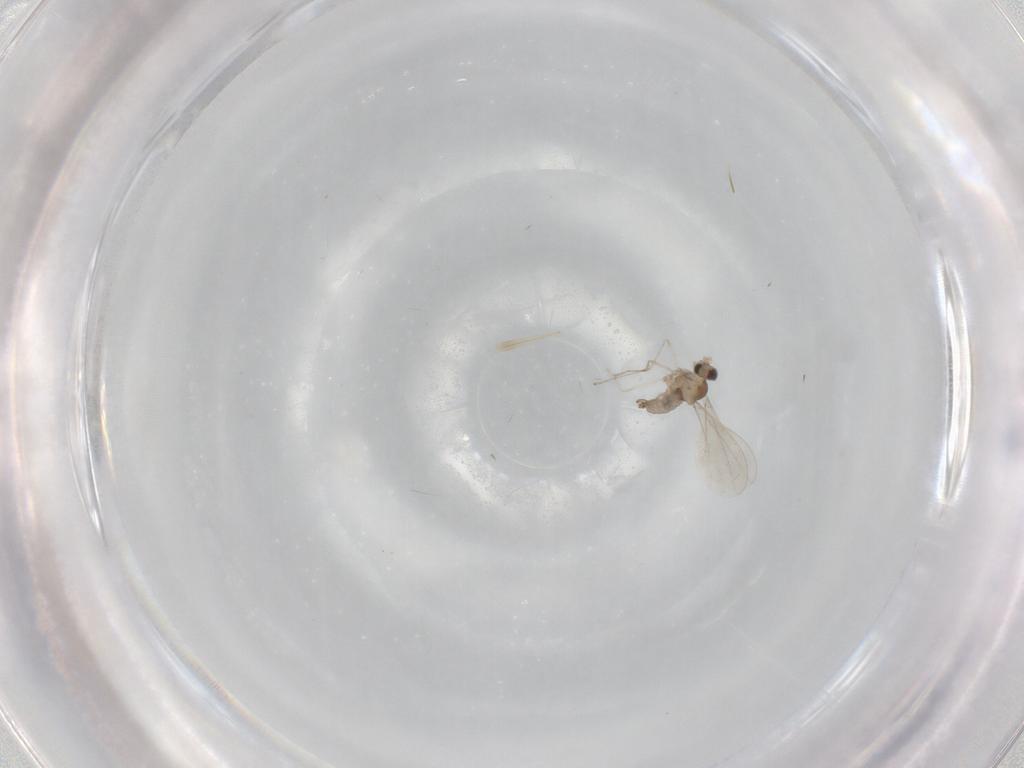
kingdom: Animalia
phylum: Arthropoda
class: Insecta
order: Diptera
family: Cecidomyiidae
